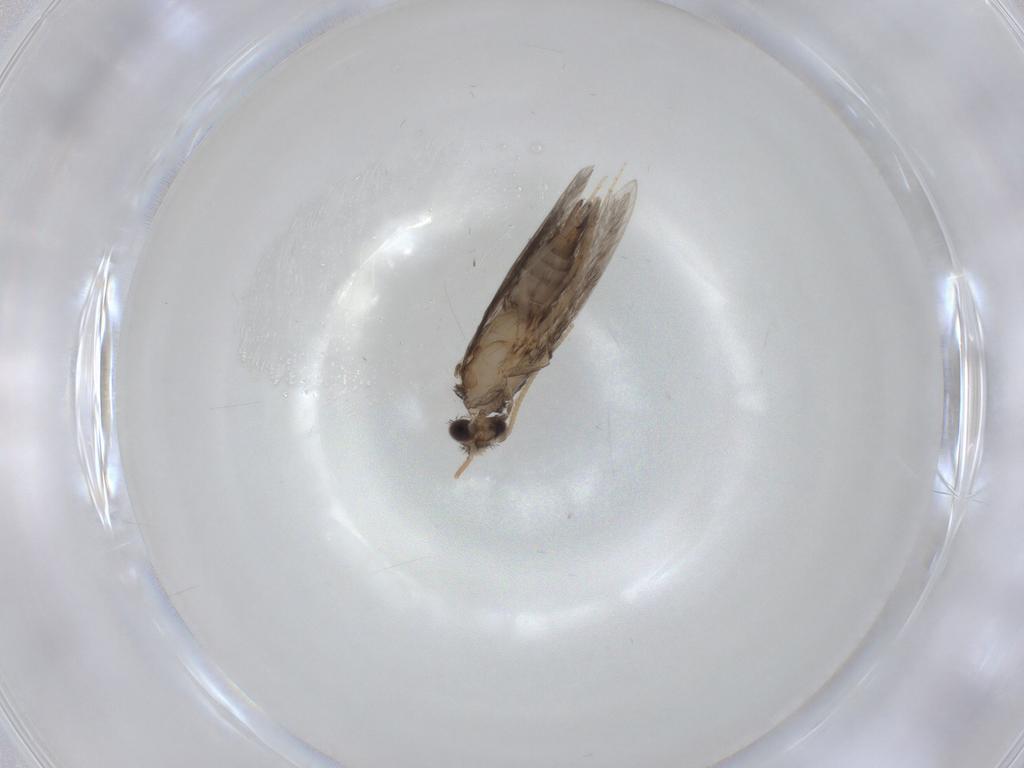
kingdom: Animalia
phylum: Arthropoda
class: Insecta
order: Trichoptera
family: Hydroptilidae
